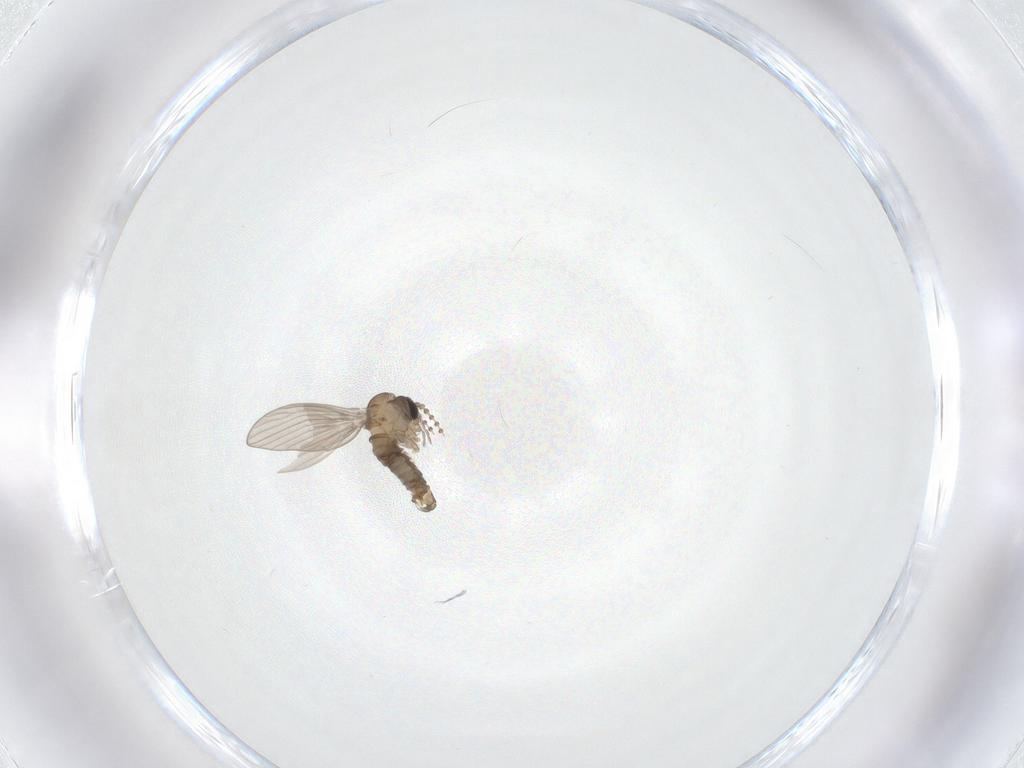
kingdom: Animalia
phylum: Arthropoda
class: Insecta
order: Diptera
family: Psychodidae
